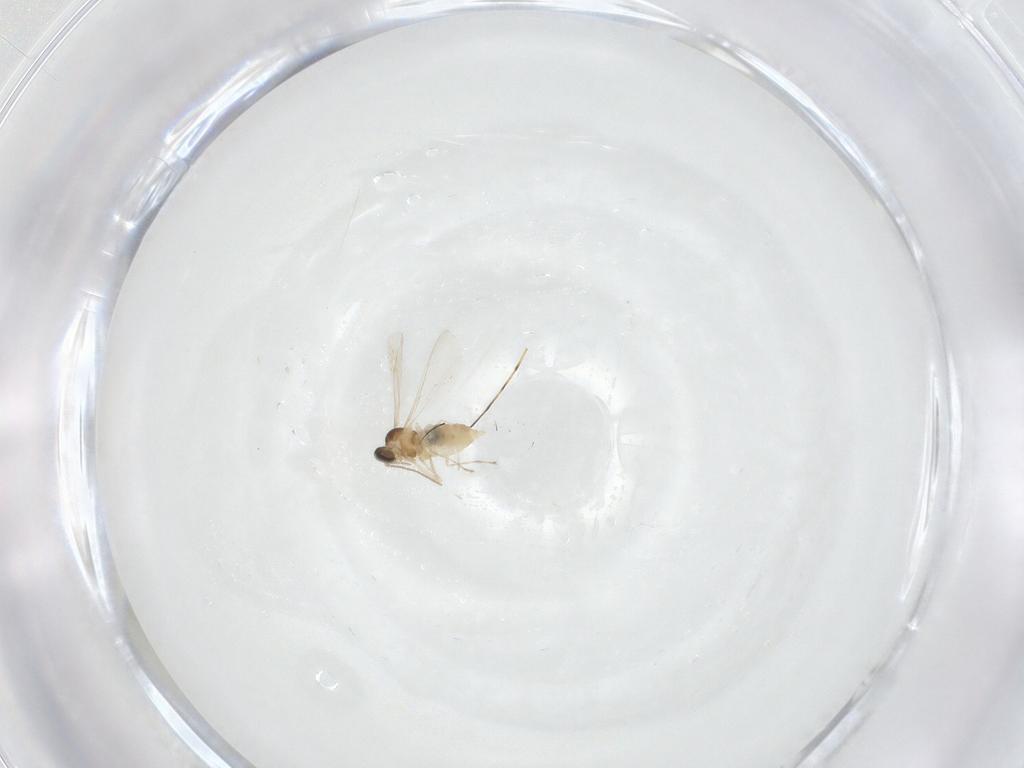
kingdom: Animalia
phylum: Arthropoda
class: Insecta
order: Diptera
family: Cecidomyiidae
